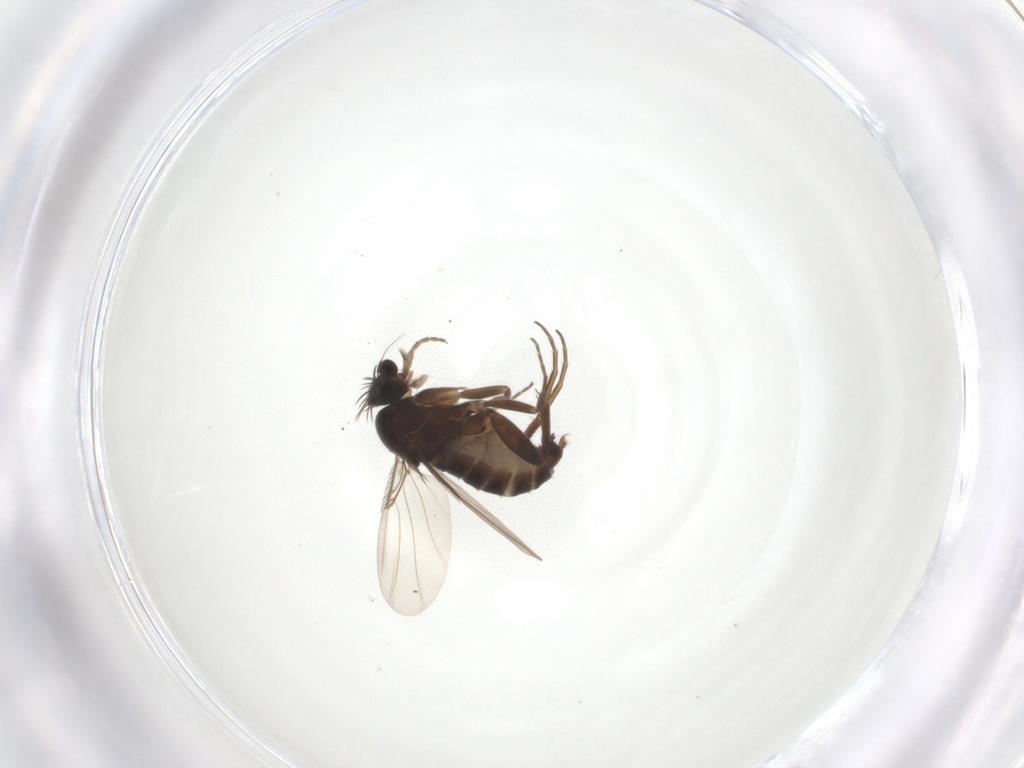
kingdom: Animalia
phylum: Arthropoda
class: Insecta
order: Diptera
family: Phoridae
